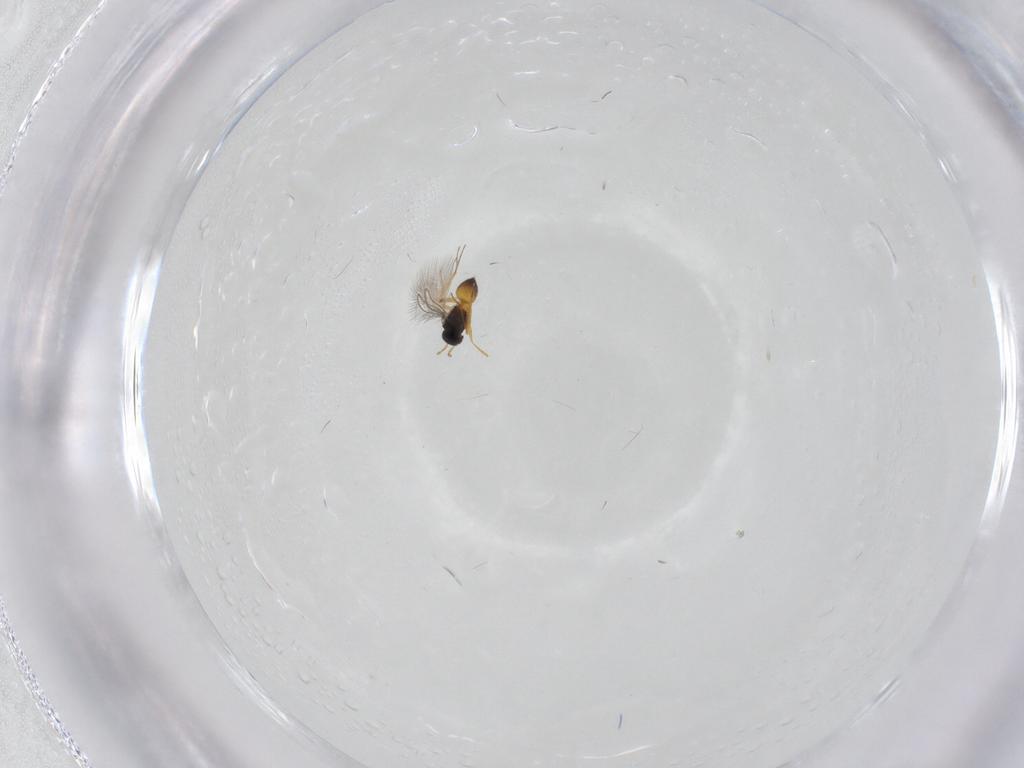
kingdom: Animalia
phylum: Arthropoda
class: Insecta
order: Hymenoptera
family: Mymaridae
